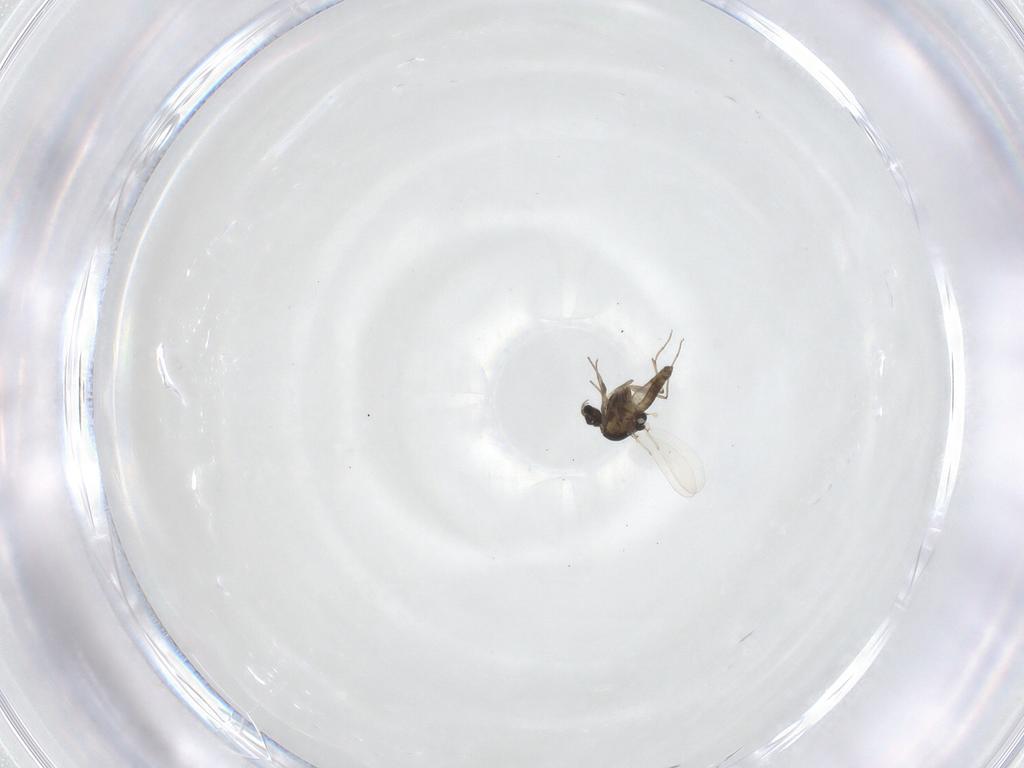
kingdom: Animalia
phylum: Arthropoda
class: Insecta
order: Diptera
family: Chironomidae
